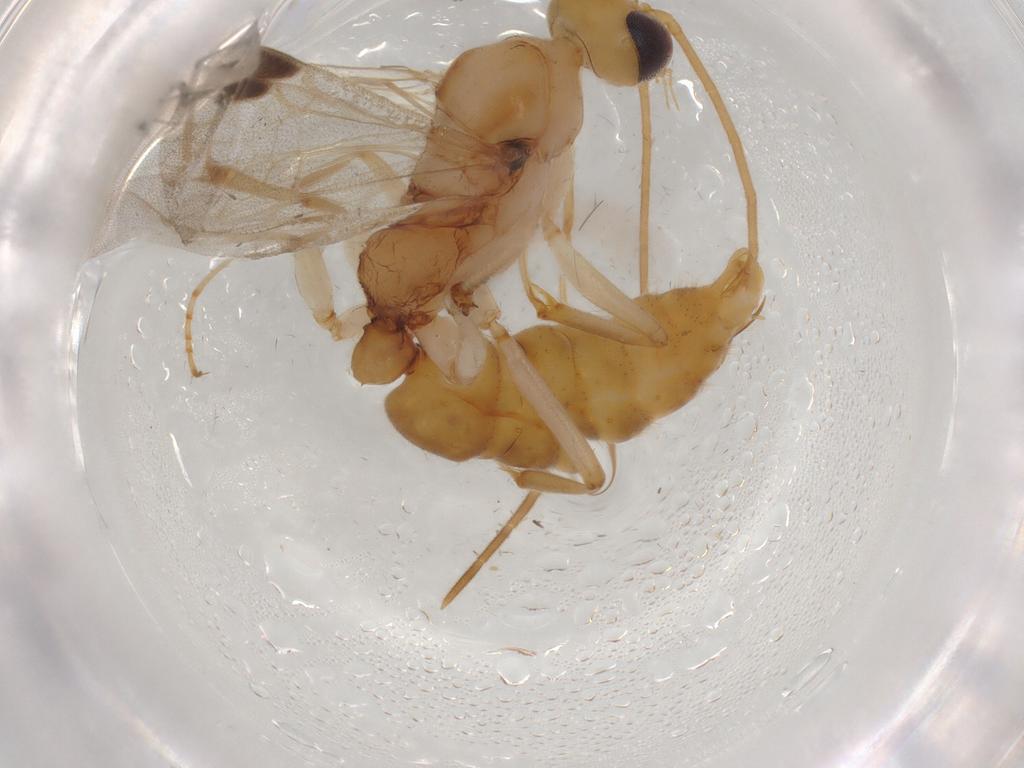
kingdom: Animalia
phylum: Arthropoda
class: Insecta
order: Hymenoptera
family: Formicidae
